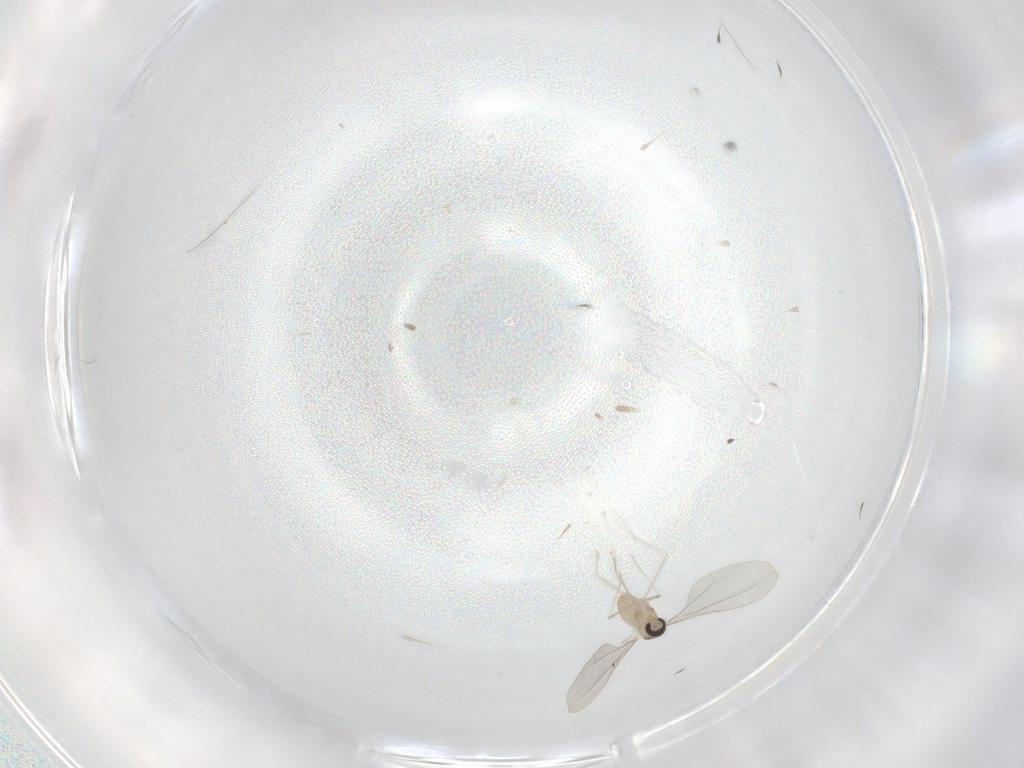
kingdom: Animalia
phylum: Arthropoda
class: Insecta
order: Diptera
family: Cecidomyiidae
